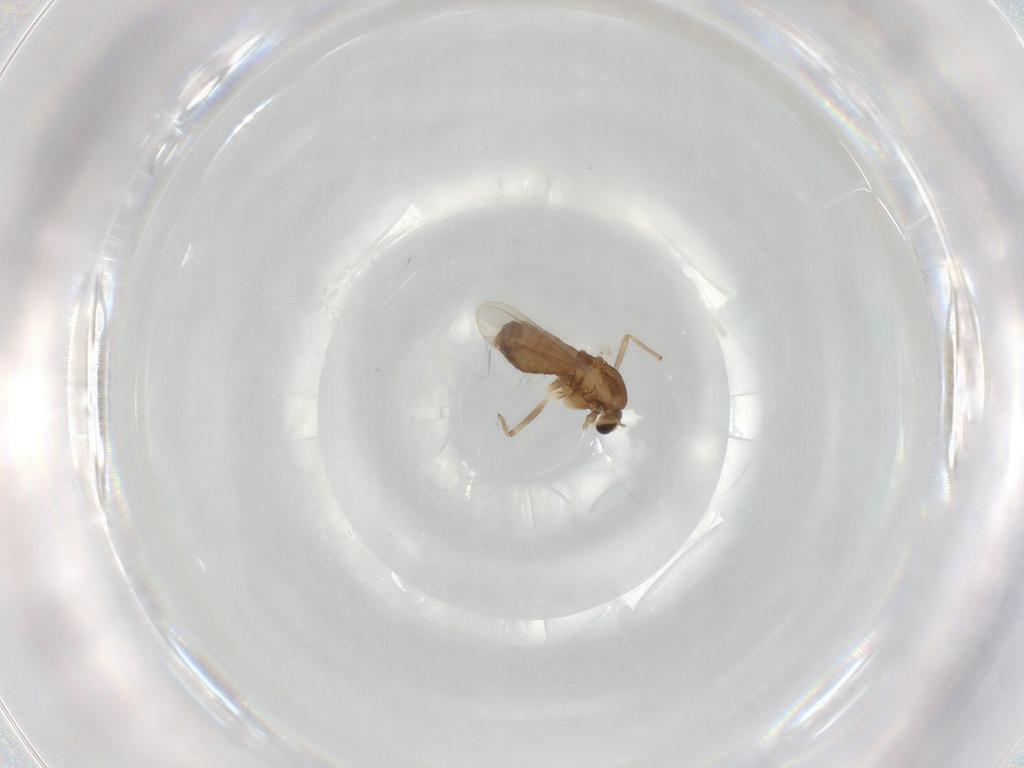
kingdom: Animalia
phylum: Arthropoda
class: Insecta
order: Diptera
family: Chironomidae
